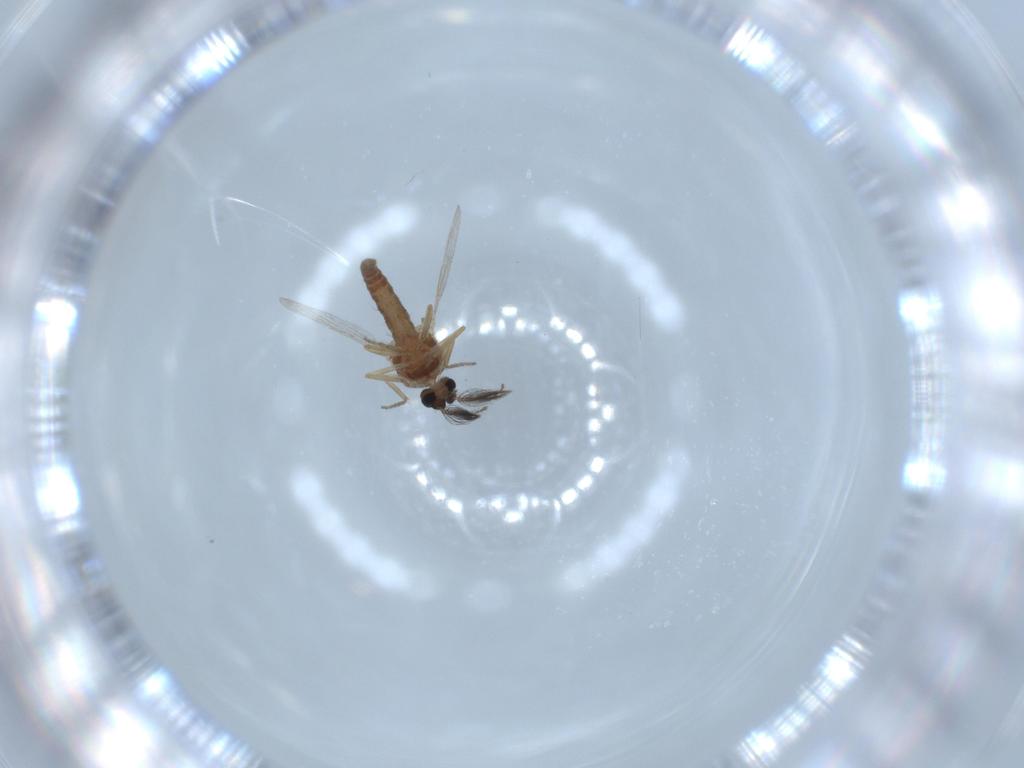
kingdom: Animalia
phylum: Arthropoda
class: Insecta
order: Diptera
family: Ceratopogonidae
